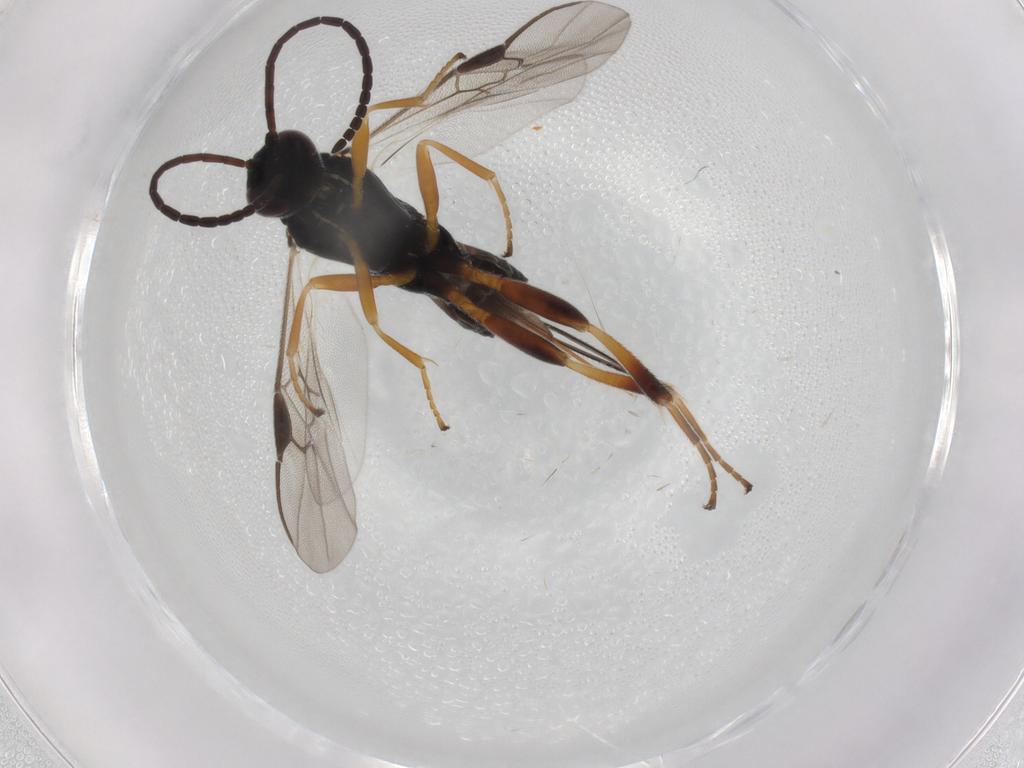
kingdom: Animalia
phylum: Arthropoda
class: Insecta
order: Hymenoptera
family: Braconidae
